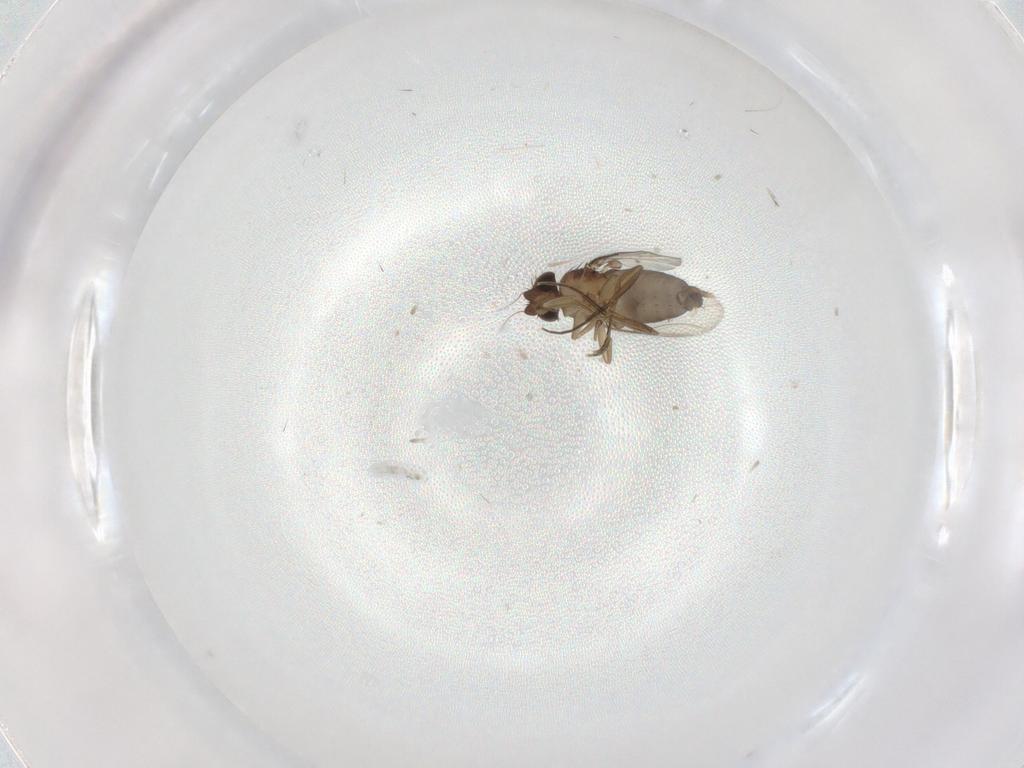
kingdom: Animalia
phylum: Arthropoda
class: Insecta
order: Diptera
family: Phoridae
